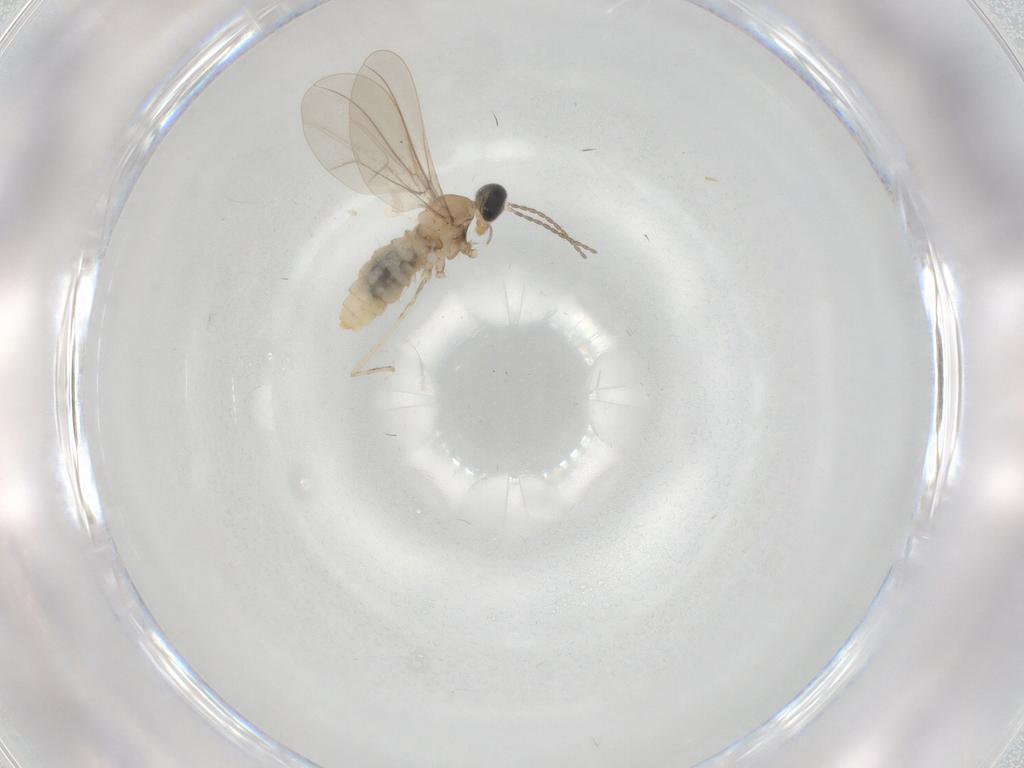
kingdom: Animalia
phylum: Arthropoda
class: Insecta
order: Diptera
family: Cecidomyiidae
